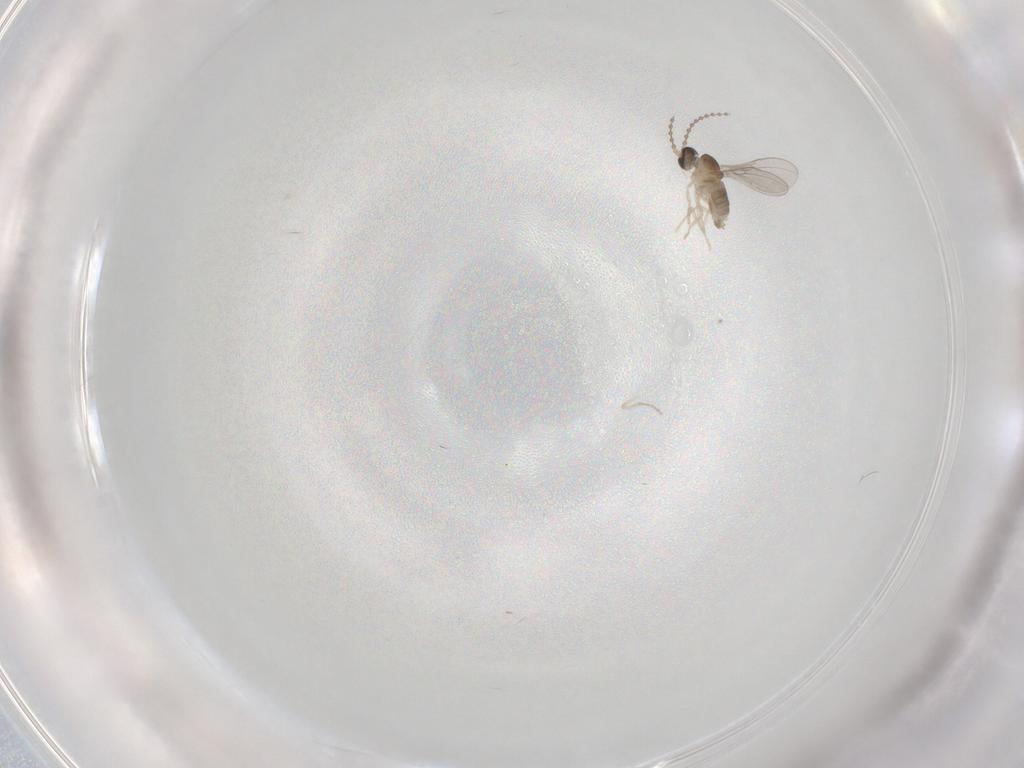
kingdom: Animalia
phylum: Arthropoda
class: Insecta
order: Diptera
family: Cecidomyiidae
